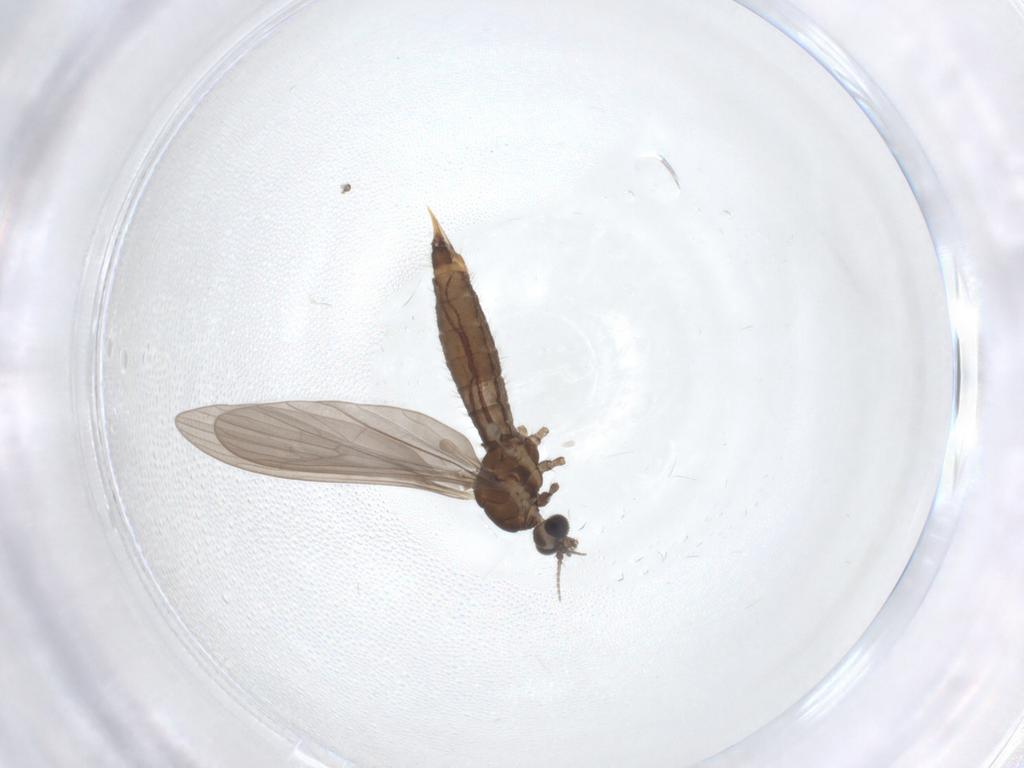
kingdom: Animalia
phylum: Arthropoda
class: Insecta
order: Diptera
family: Limoniidae
